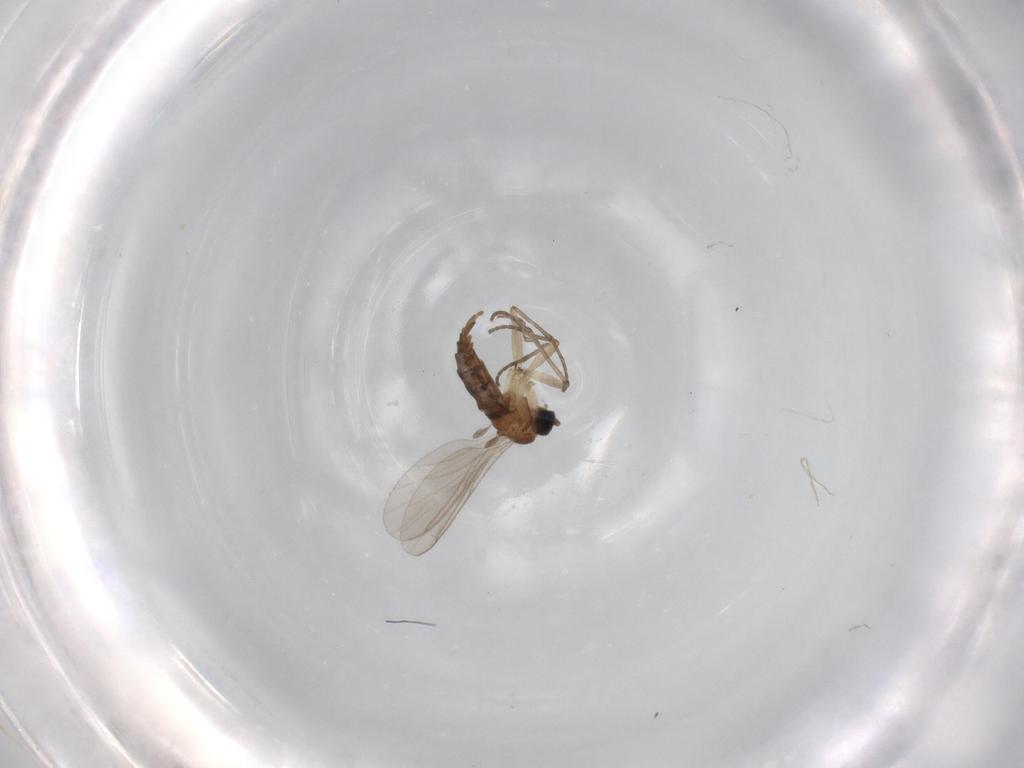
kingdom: Animalia
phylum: Arthropoda
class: Insecta
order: Diptera
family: Sciaridae
